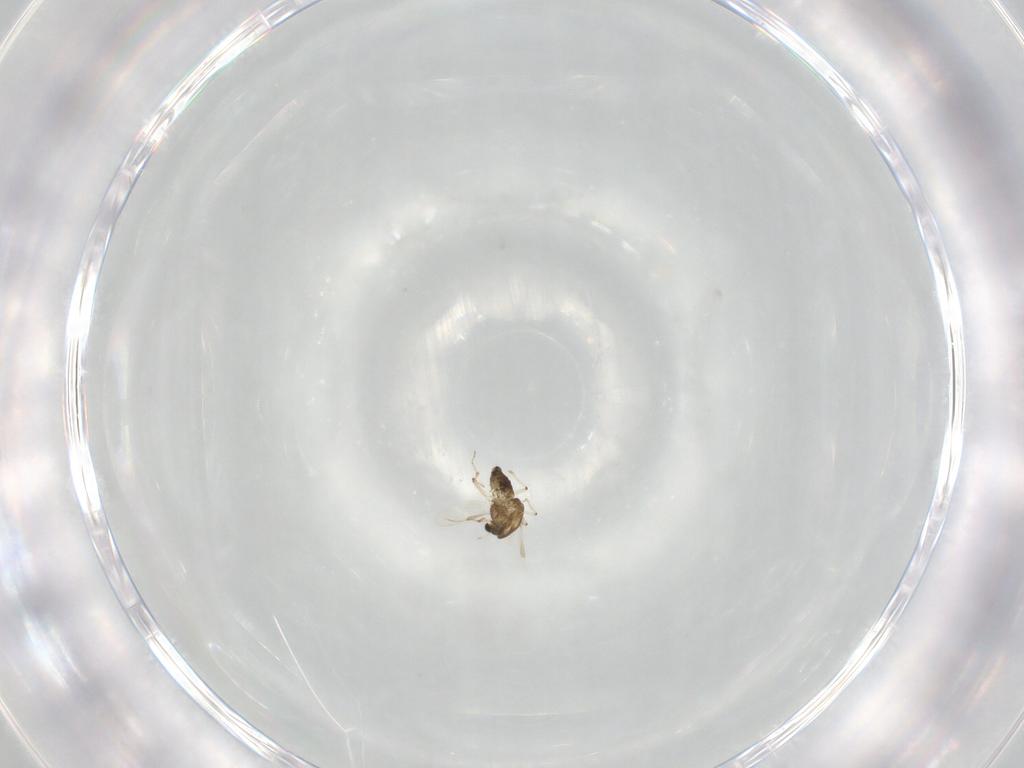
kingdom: Animalia
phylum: Arthropoda
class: Insecta
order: Diptera
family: Chironomidae
